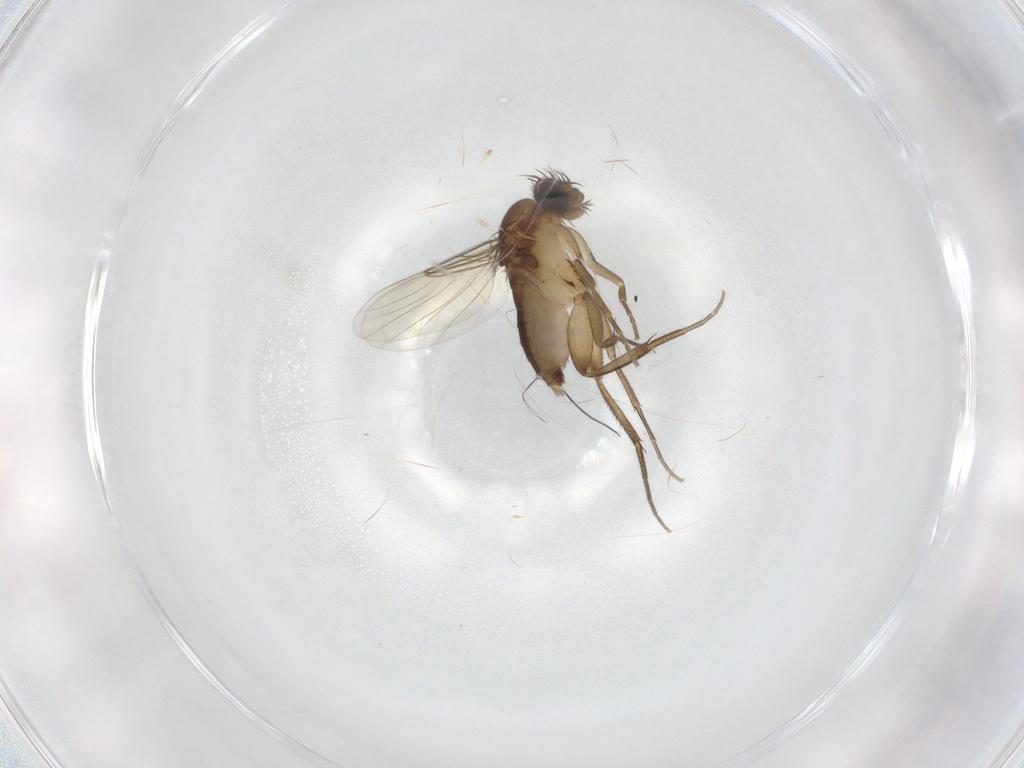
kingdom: Animalia
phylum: Arthropoda
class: Insecta
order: Diptera
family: Phoridae
